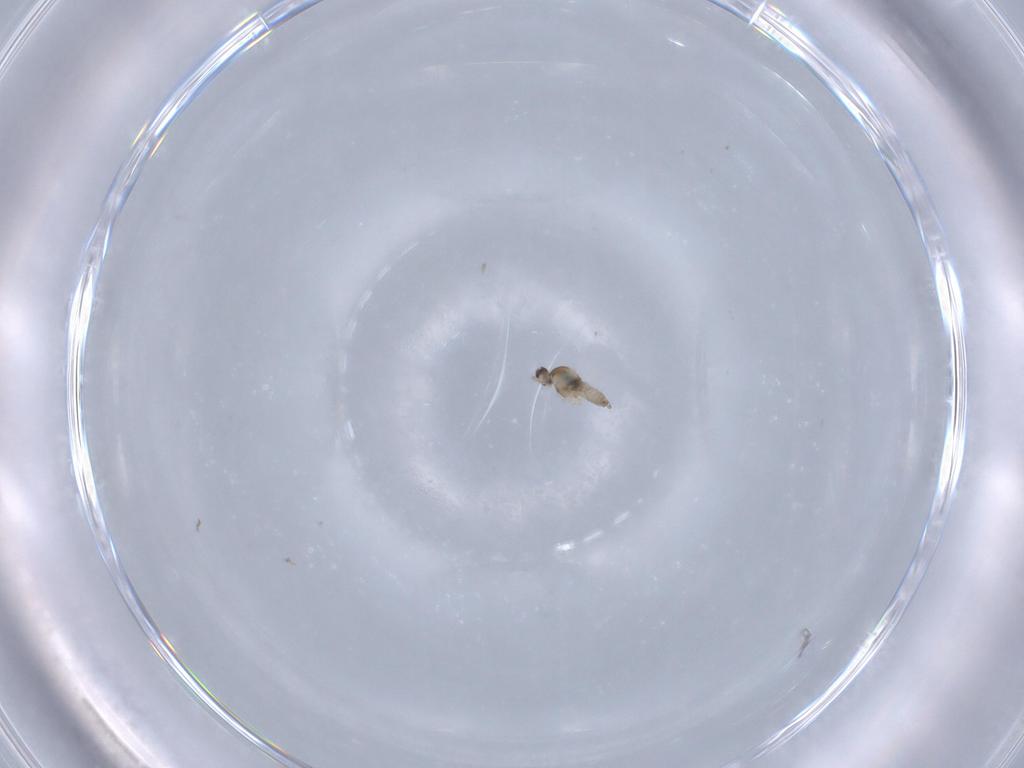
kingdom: Animalia
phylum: Arthropoda
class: Insecta
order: Diptera
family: Cecidomyiidae
